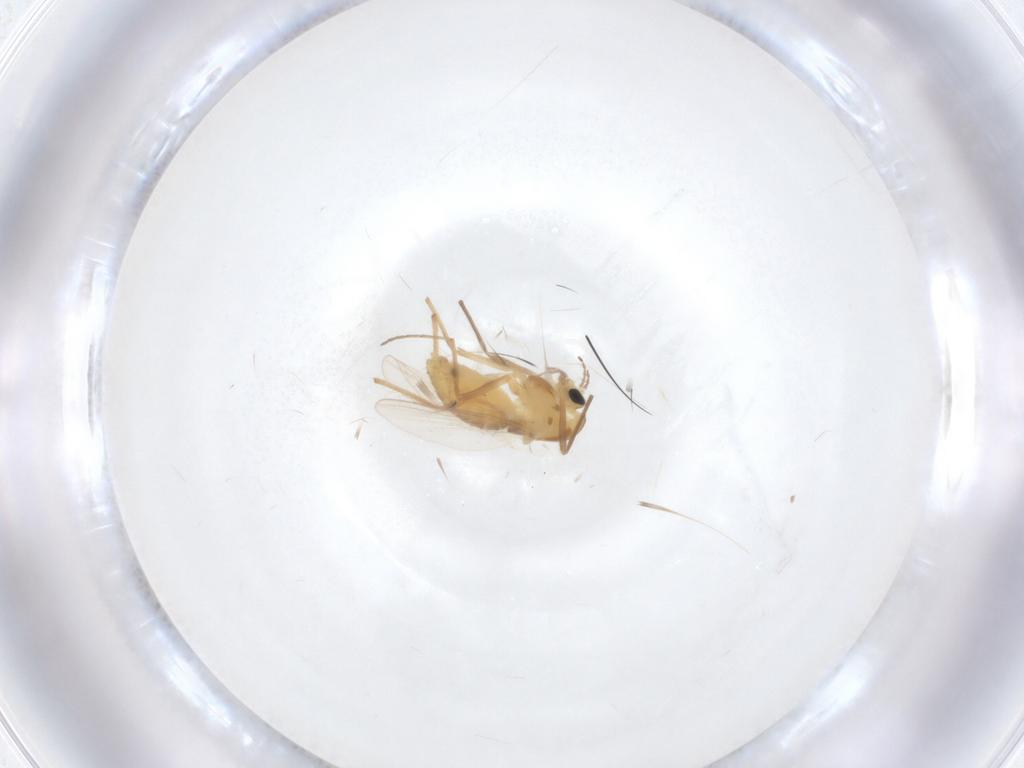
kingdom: Animalia
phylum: Arthropoda
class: Insecta
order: Diptera
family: Chironomidae
